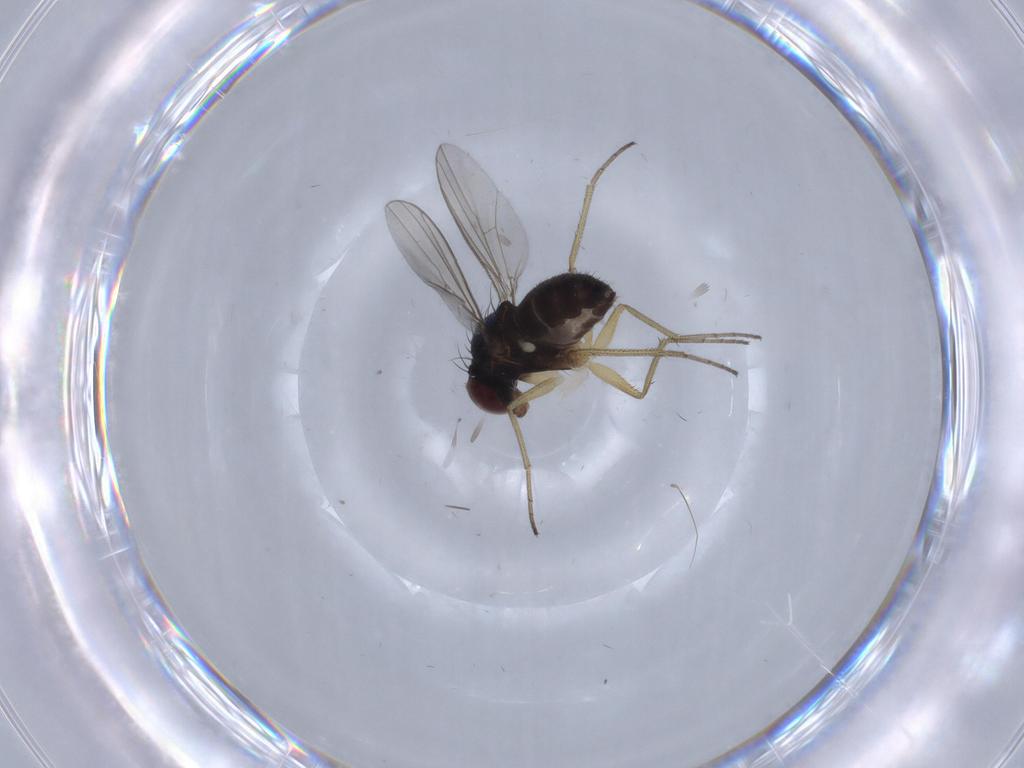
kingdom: Animalia
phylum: Arthropoda
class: Insecta
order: Diptera
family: Dolichopodidae
